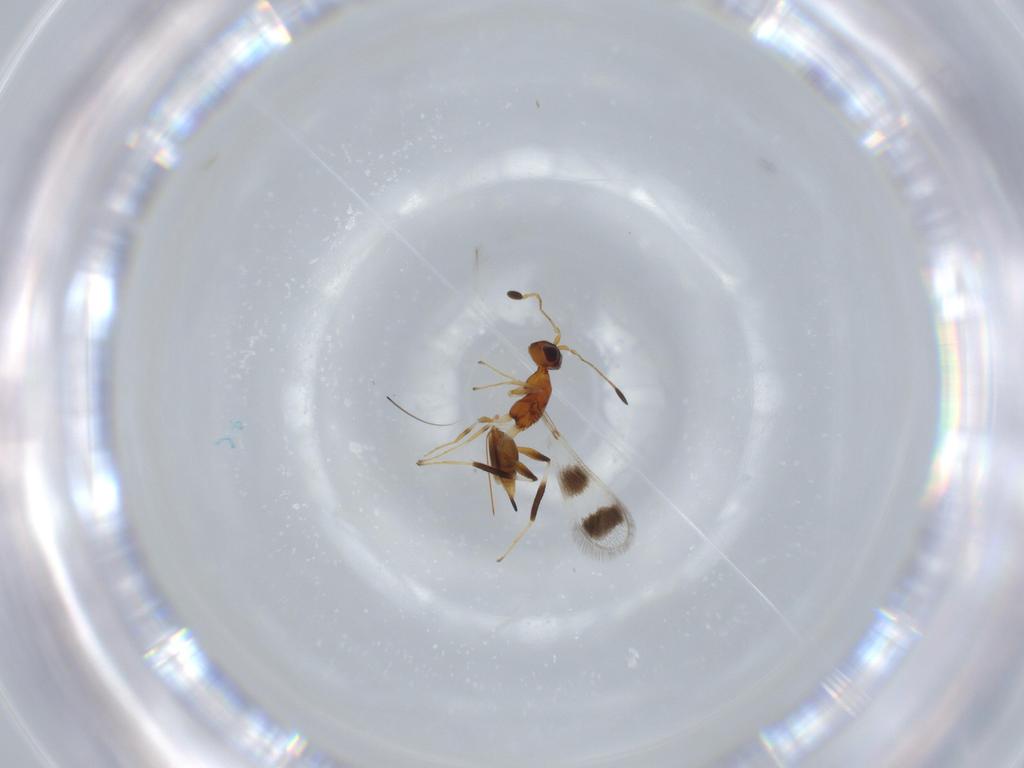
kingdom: Animalia
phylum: Arthropoda
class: Insecta
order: Hymenoptera
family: Mymaridae
